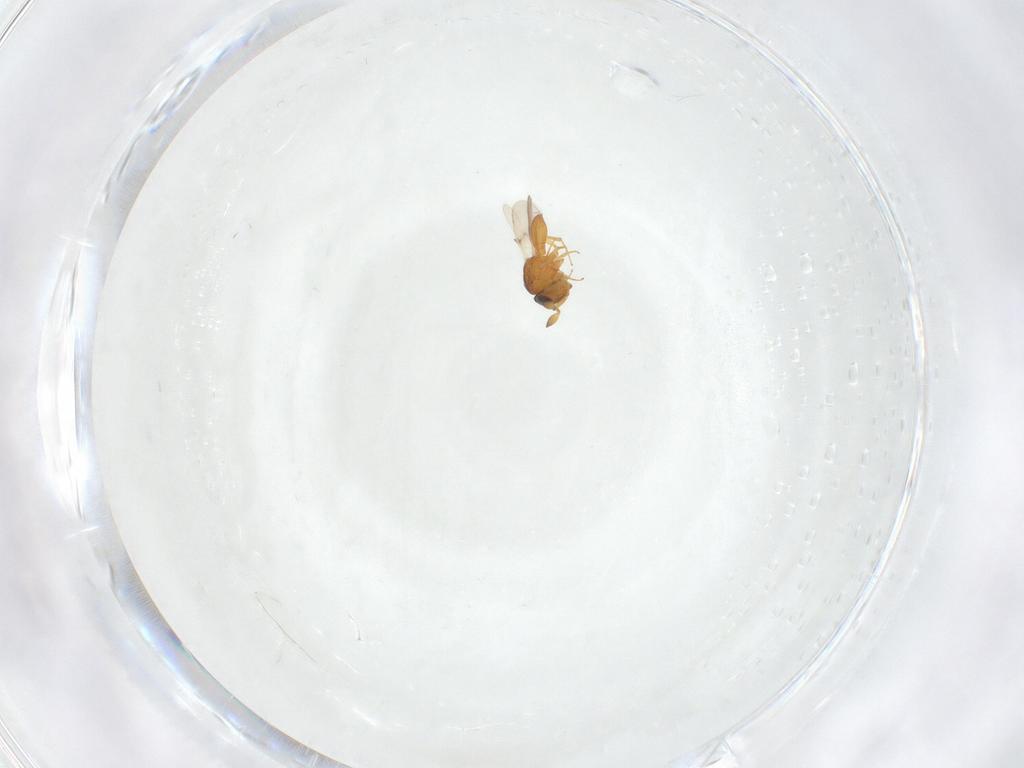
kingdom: Animalia
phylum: Arthropoda
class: Insecta
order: Hymenoptera
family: Scelionidae
